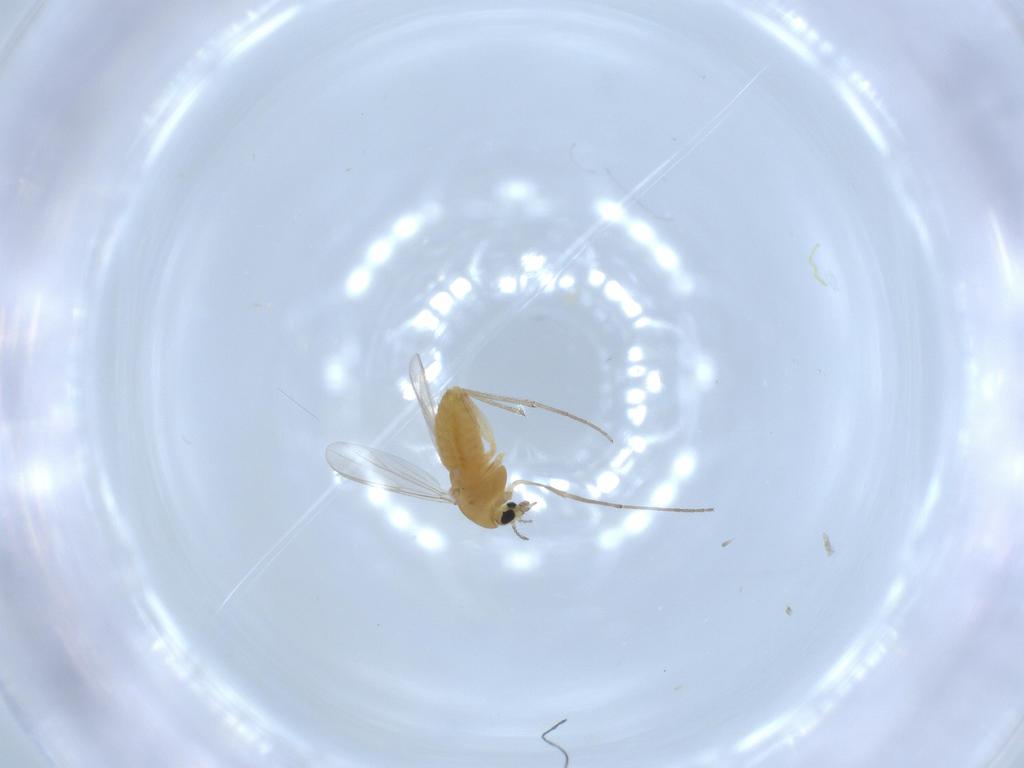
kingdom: Animalia
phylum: Arthropoda
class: Insecta
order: Diptera
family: Chironomidae
